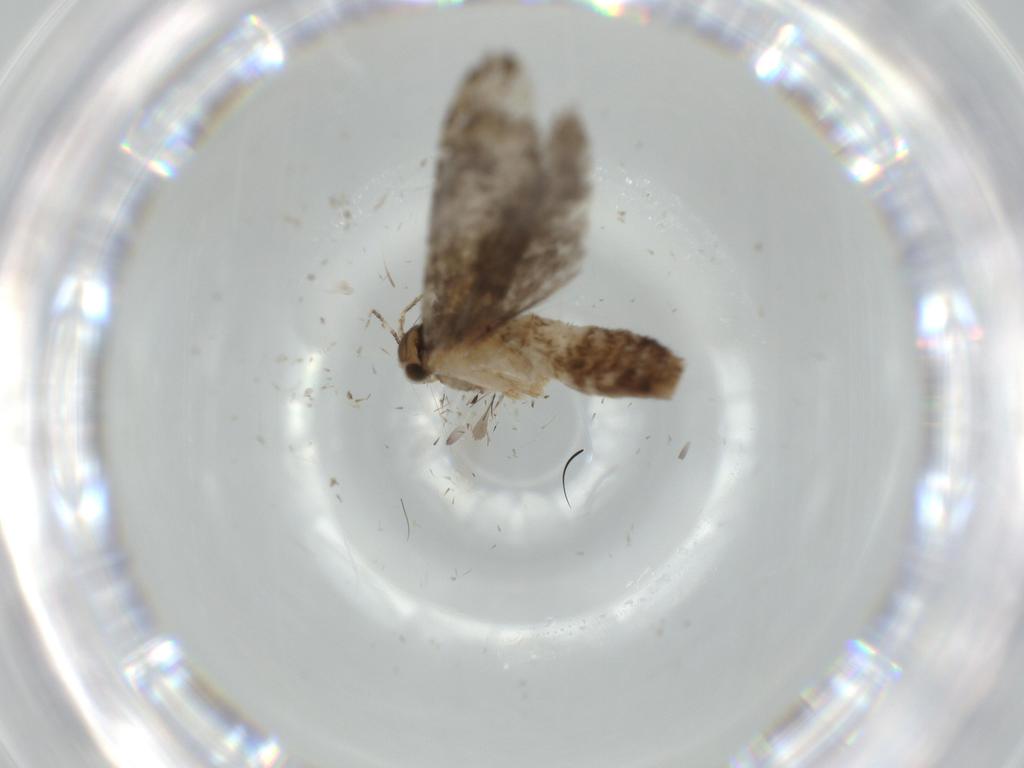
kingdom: Animalia
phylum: Arthropoda
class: Insecta
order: Lepidoptera
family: Tineidae
